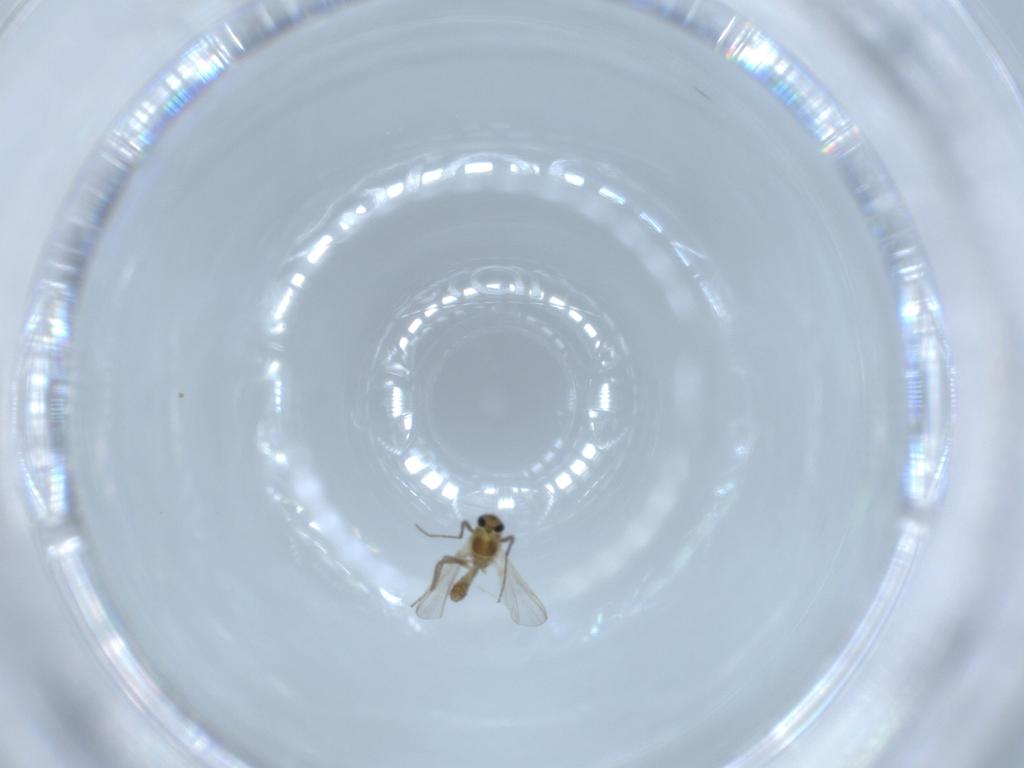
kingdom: Animalia
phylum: Arthropoda
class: Insecta
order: Diptera
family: Chironomidae
